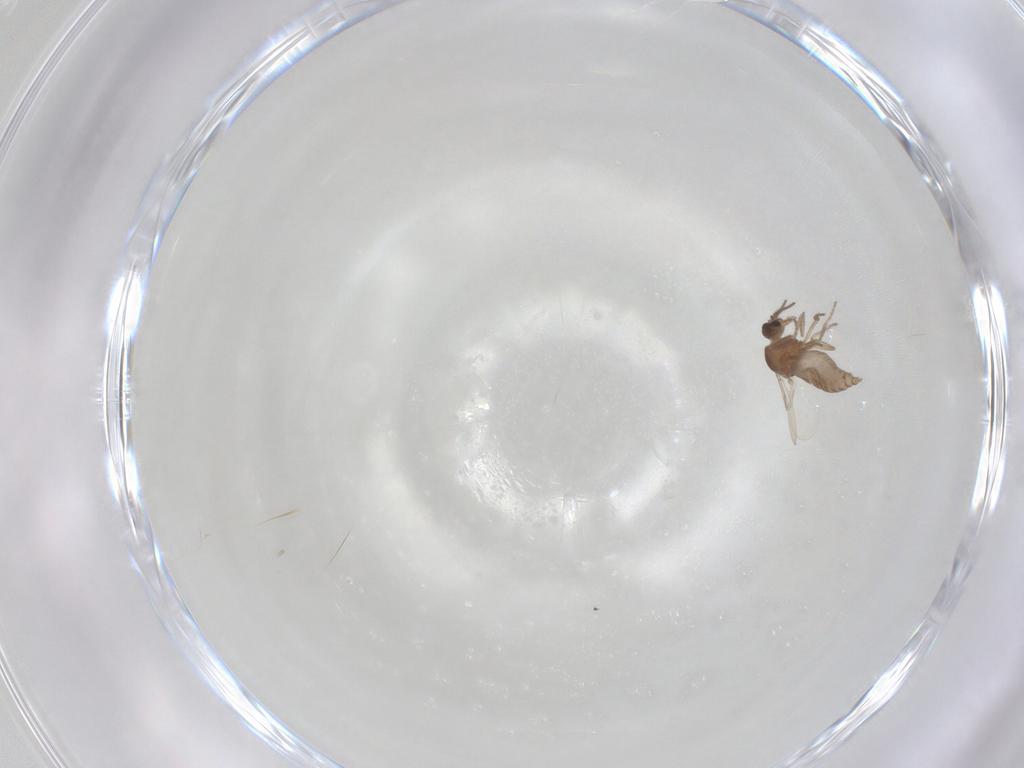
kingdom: Animalia
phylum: Arthropoda
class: Insecta
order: Diptera
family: Ceratopogonidae
